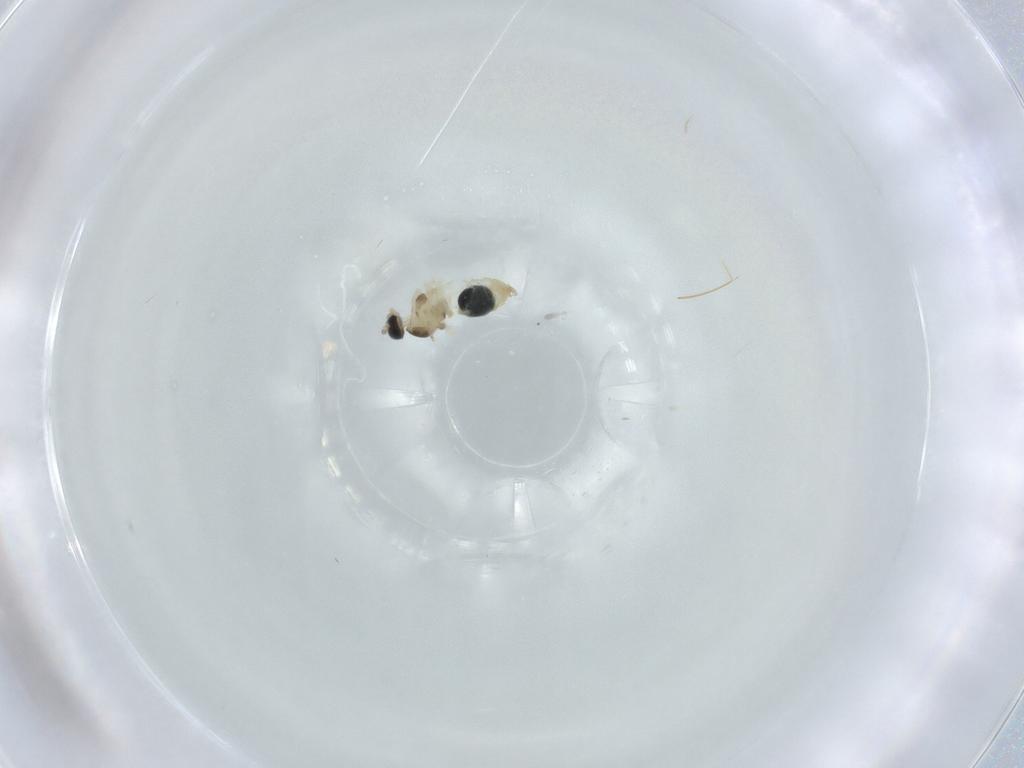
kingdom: Animalia
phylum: Arthropoda
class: Insecta
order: Diptera
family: Cecidomyiidae
